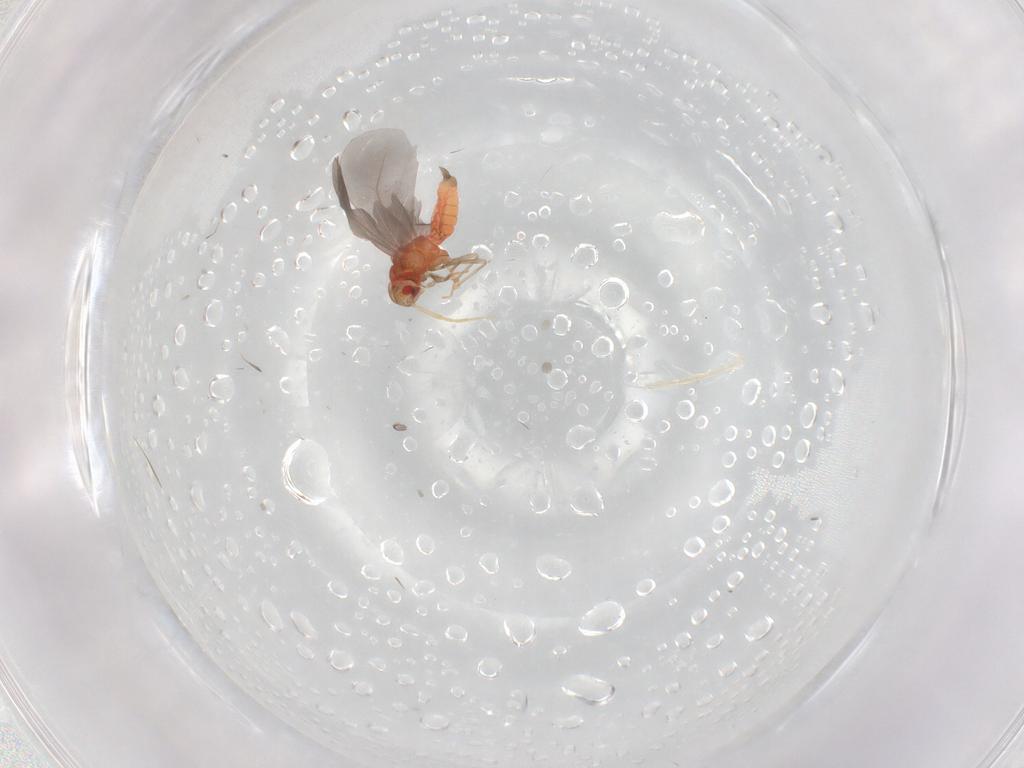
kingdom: Animalia
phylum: Arthropoda
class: Insecta
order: Hemiptera
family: Aleyrodidae
